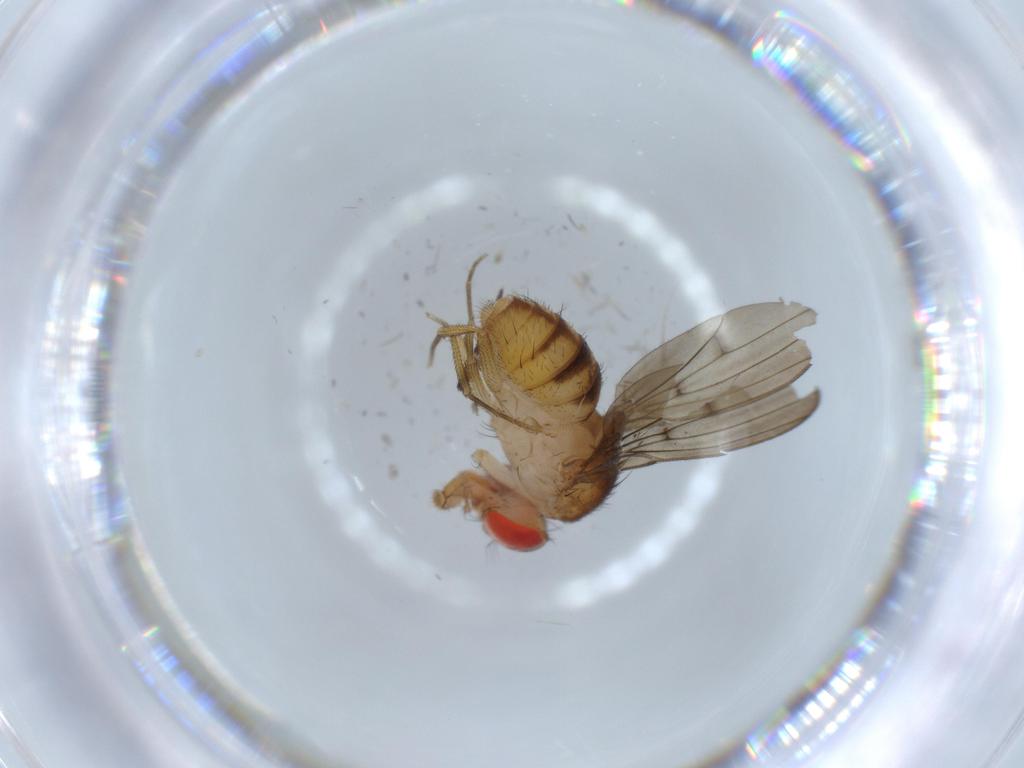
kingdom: Animalia
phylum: Arthropoda
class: Insecta
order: Diptera
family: Drosophilidae
